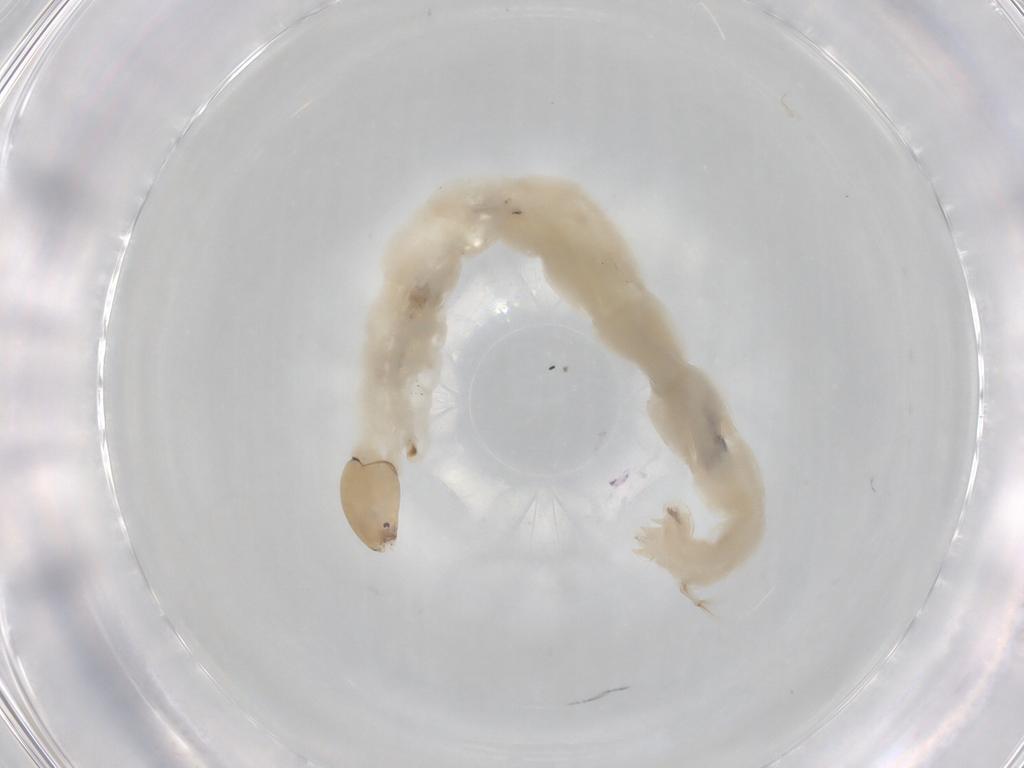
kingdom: Animalia
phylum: Arthropoda
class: Insecta
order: Diptera
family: Chironomidae
